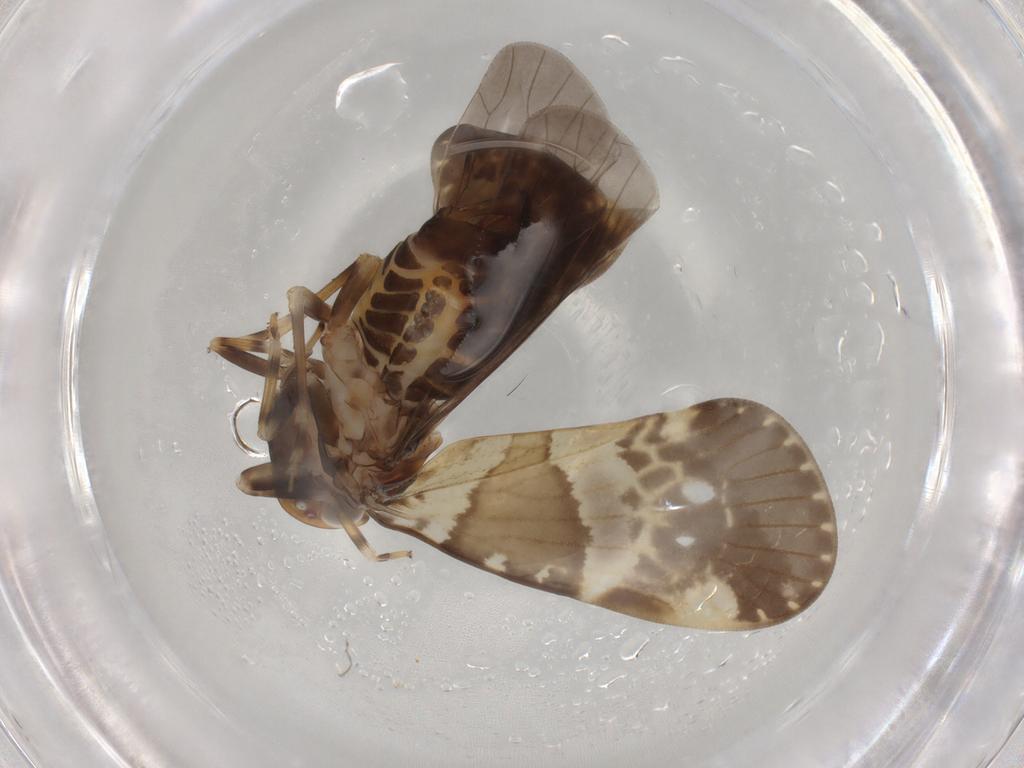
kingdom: Animalia
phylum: Arthropoda
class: Insecta
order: Hemiptera
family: Cixiidae
